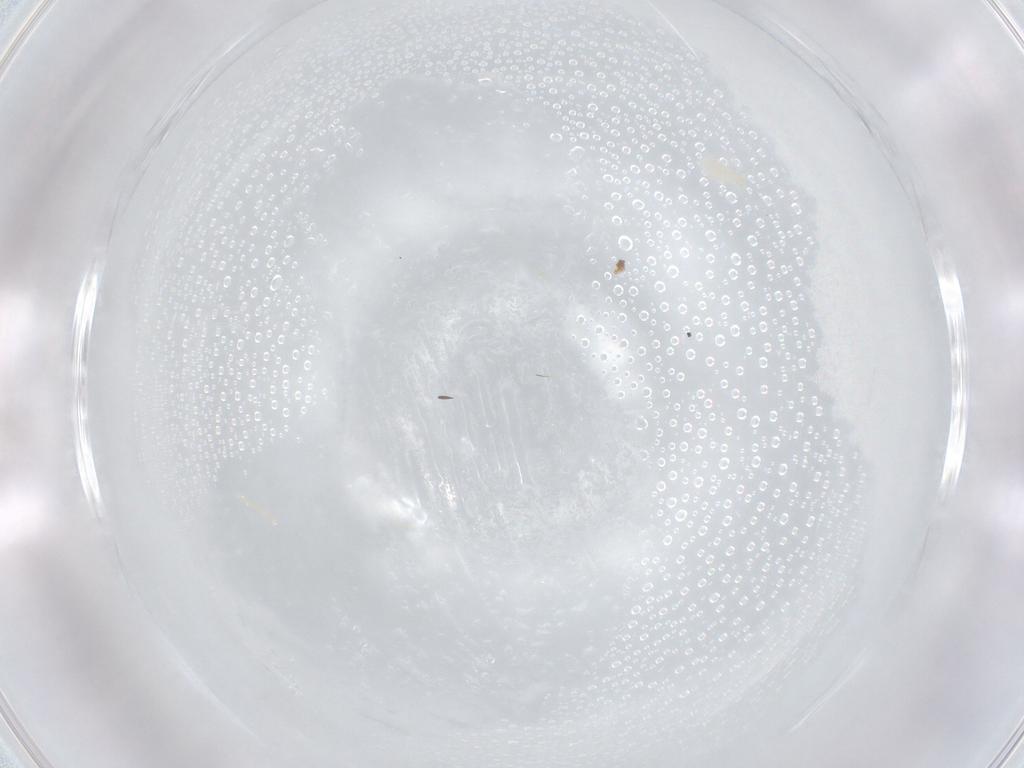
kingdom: Animalia
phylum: Arthropoda
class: Arachnida
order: Trombidiformes
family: Erythraeidae
